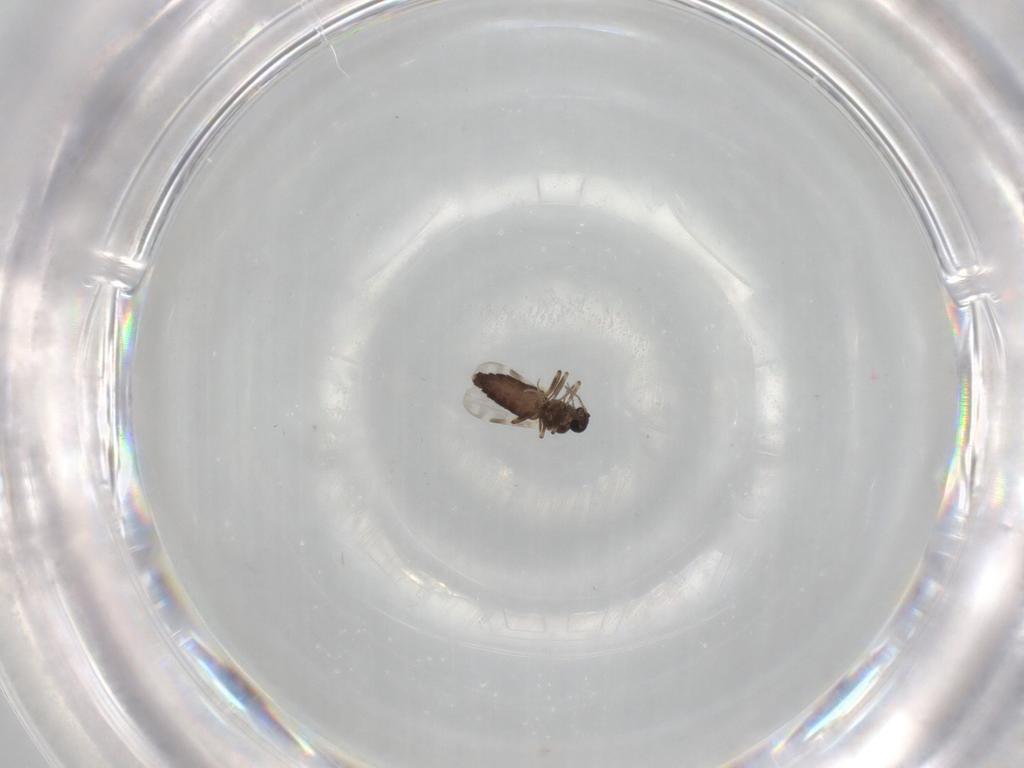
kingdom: Animalia
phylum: Arthropoda
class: Insecta
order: Diptera
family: Ceratopogonidae
